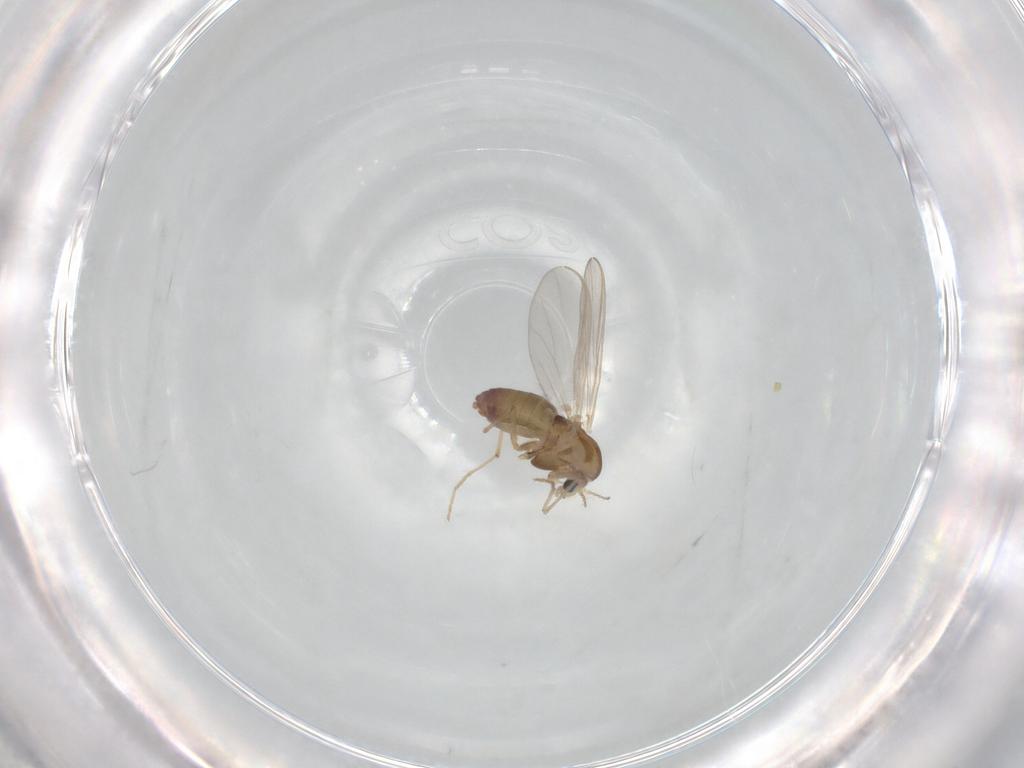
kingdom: Animalia
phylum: Arthropoda
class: Insecta
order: Diptera
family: Chironomidae
